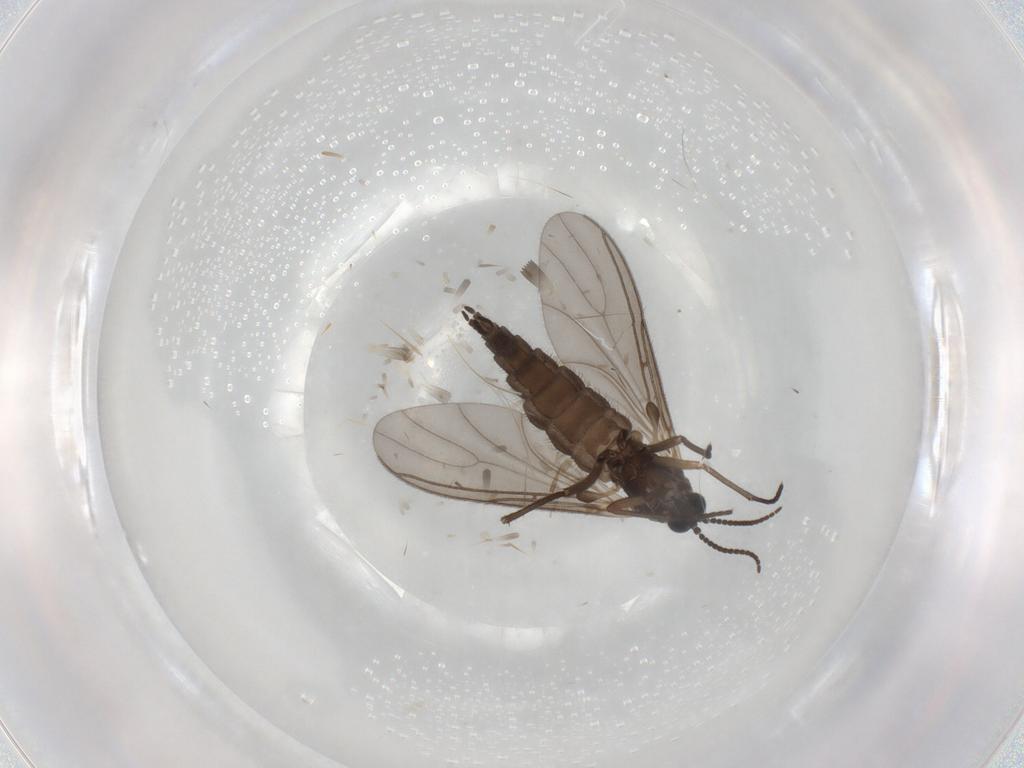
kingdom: Animalia
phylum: Arthropoda
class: Insecta
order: Diptera
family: Sciaridae
